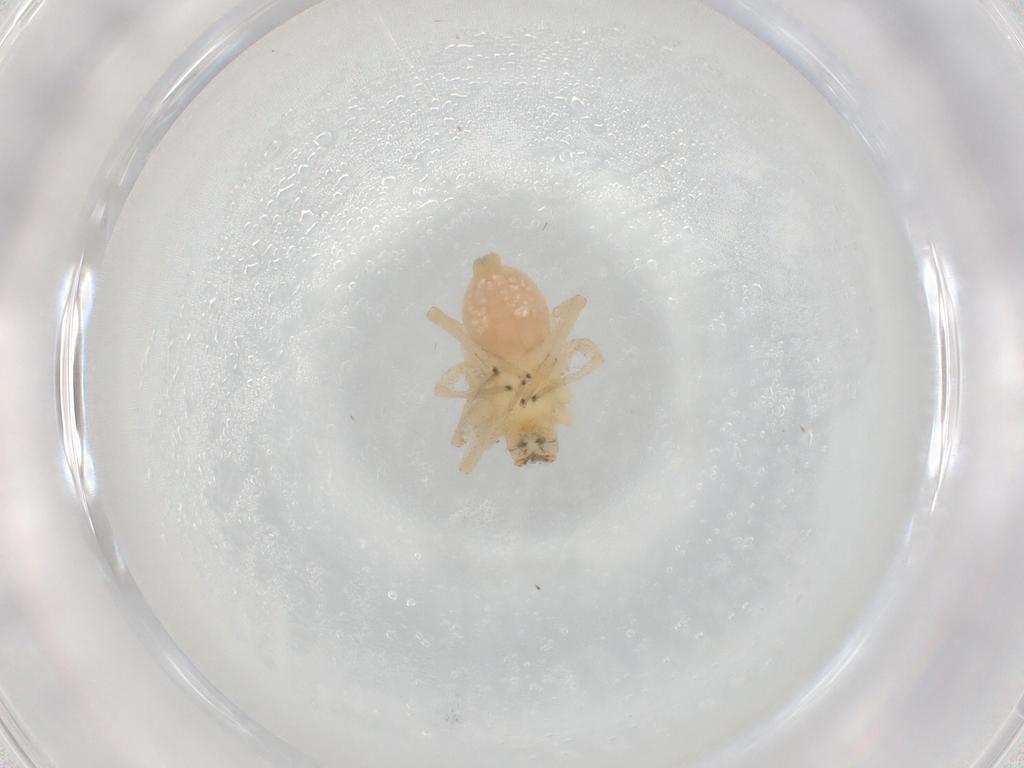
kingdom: Animalia
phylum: Arthropoda
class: Arachnida
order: Araneae
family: Cheiracanthiidae
